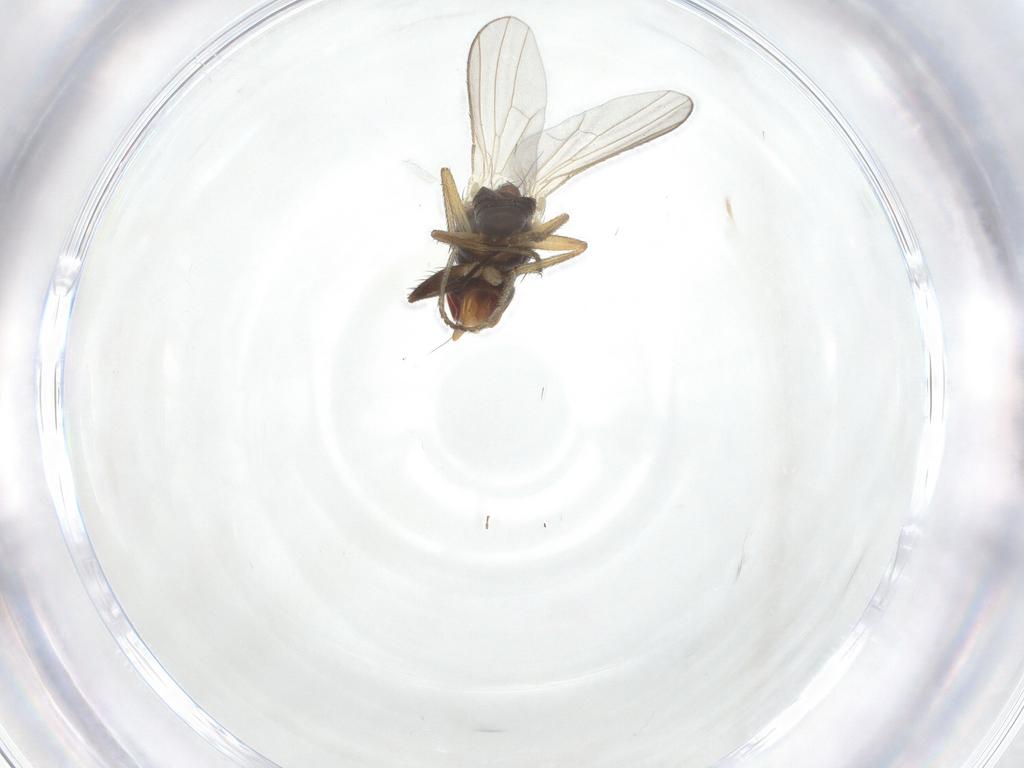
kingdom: Animalia
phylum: Arthropoda
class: Insecta
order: Diptera
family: Heleomyzidae
